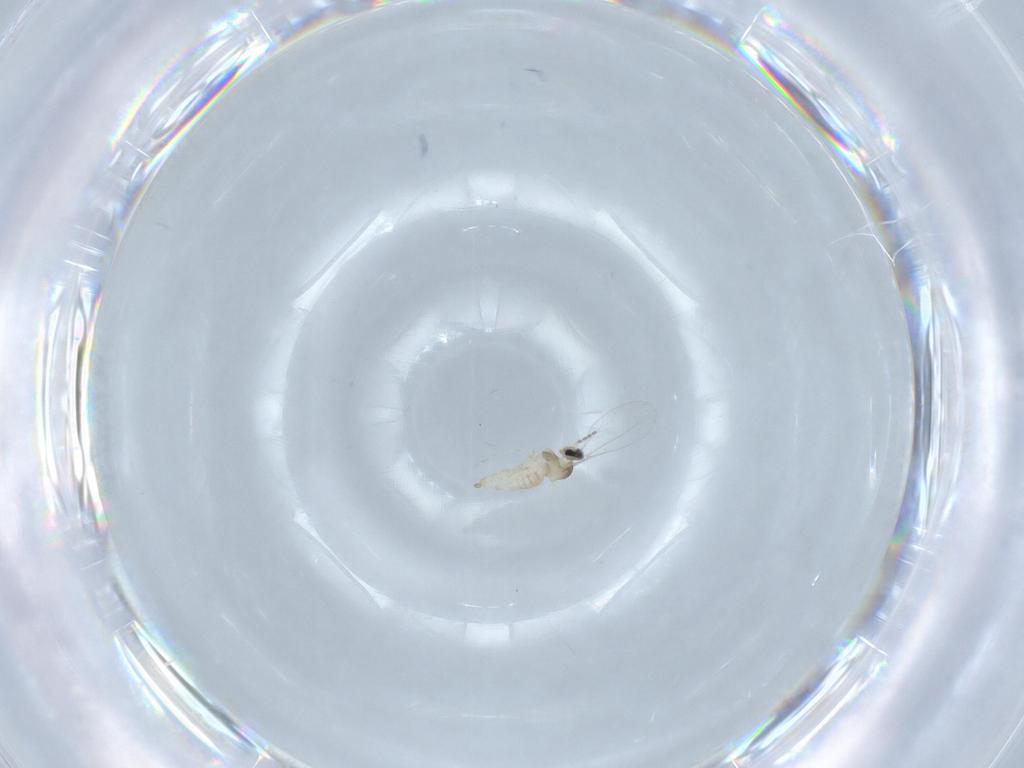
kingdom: Animalia
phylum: Arthropoda
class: Insecta
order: Diptera
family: Cecidomyiidae
